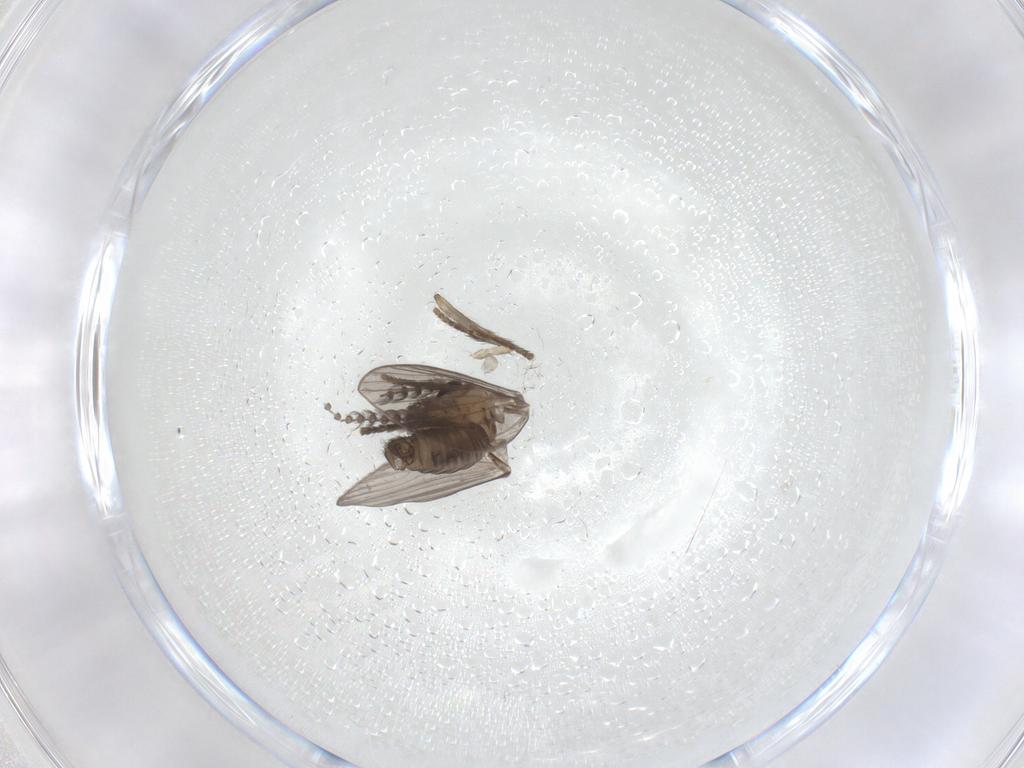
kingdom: Animalia
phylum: Arthropoda
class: Insecta
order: Diptera
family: Psychodidae
